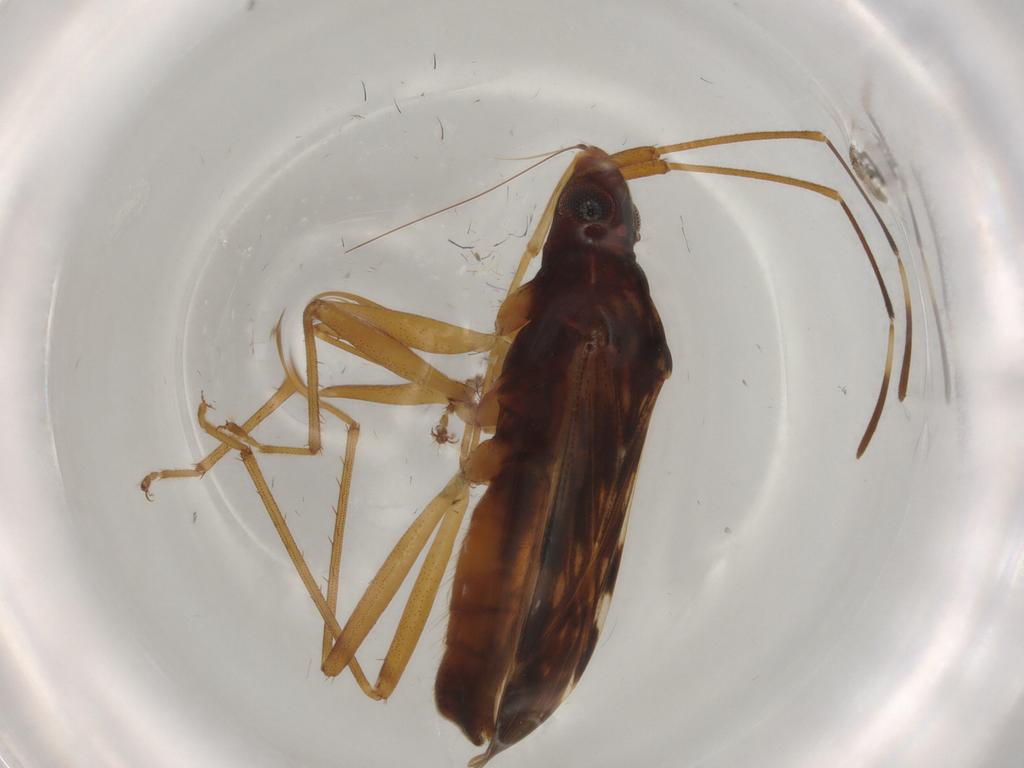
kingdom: Animalia
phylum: Arthropoda
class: Insecta
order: Hemiptera
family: Rhyparochromidae
